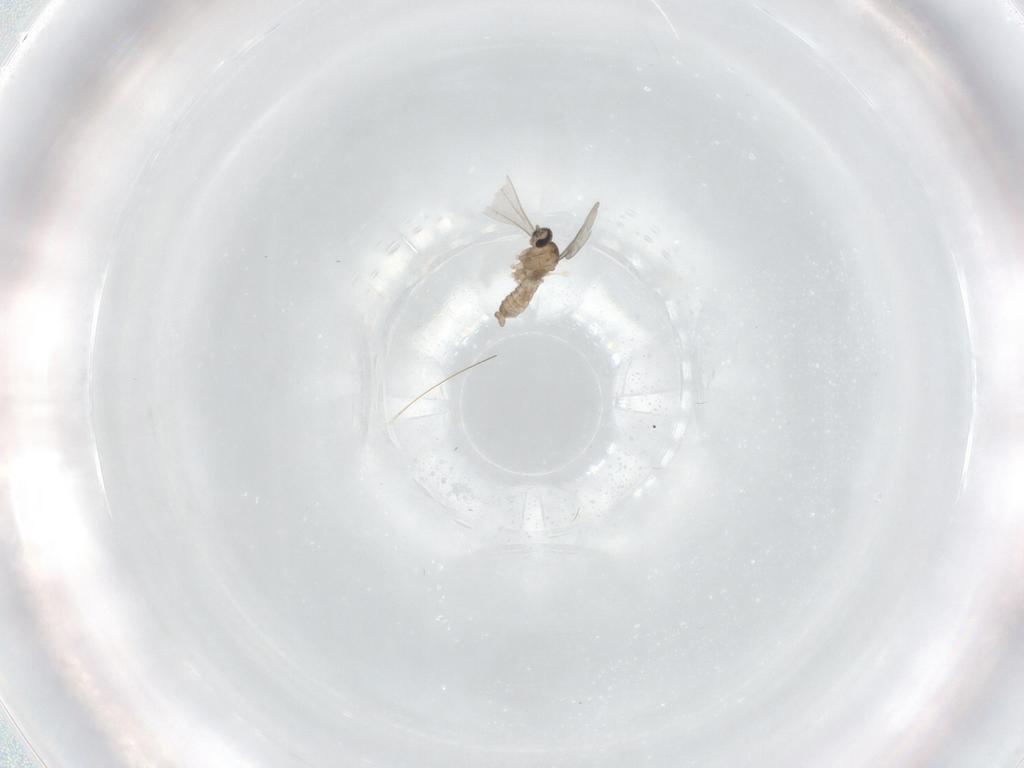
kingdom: Animalia
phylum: Arthropoda
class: Insecta
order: Diptera
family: Cecidomyiidae
